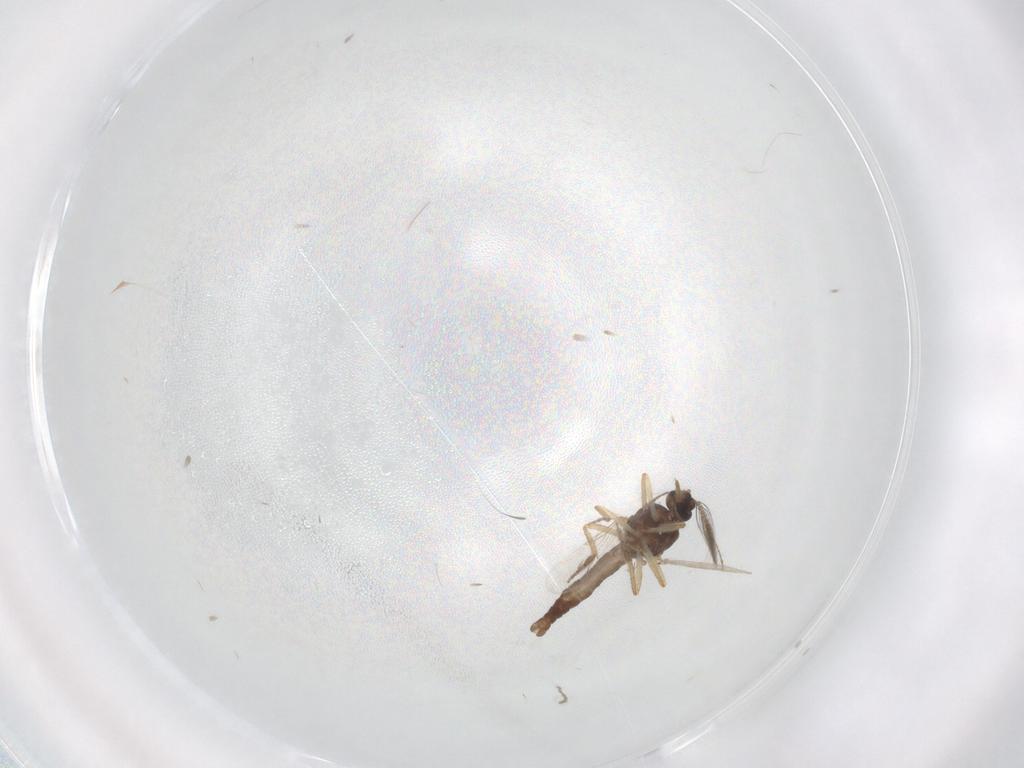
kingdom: Animalia
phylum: Arthropoda
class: Insecta
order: Diptera
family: Ceratopogonidae
